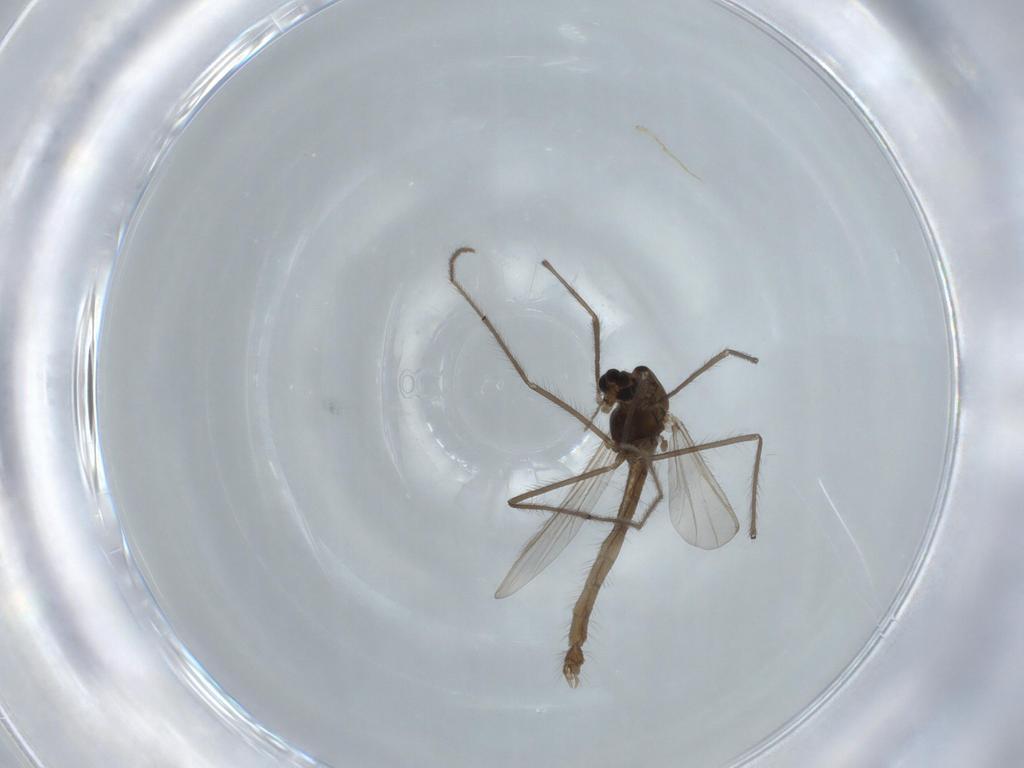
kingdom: Animalia
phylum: Arthropoda
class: Insecta
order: Diptera
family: Chironomidae
